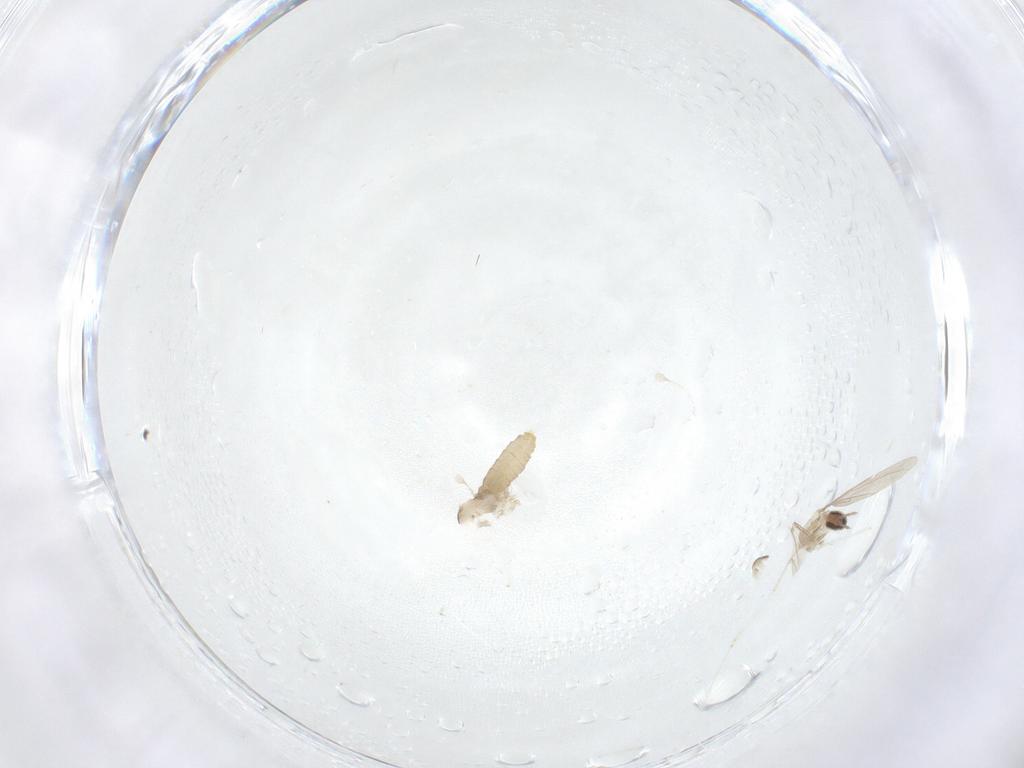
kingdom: Animalia
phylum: Arthropoda
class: Insecta
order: Diptera
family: Cecidomyiidae
